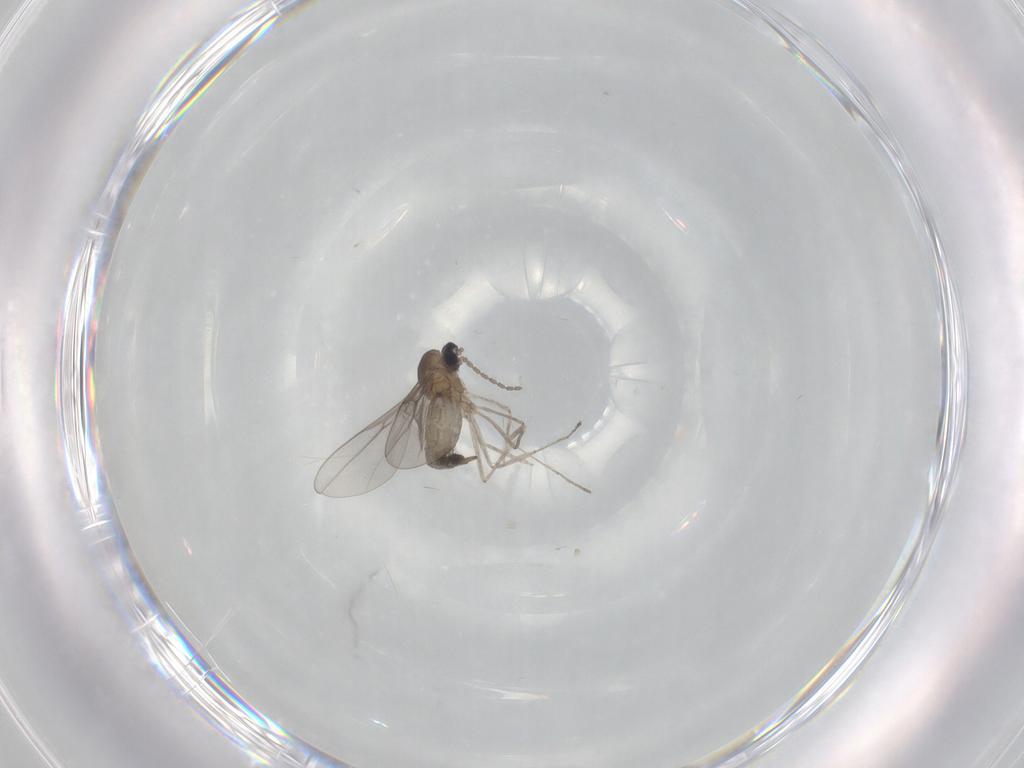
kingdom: Animalia
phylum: Arthropoda
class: Insecta
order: Diptera
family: Cecidomyiidae
